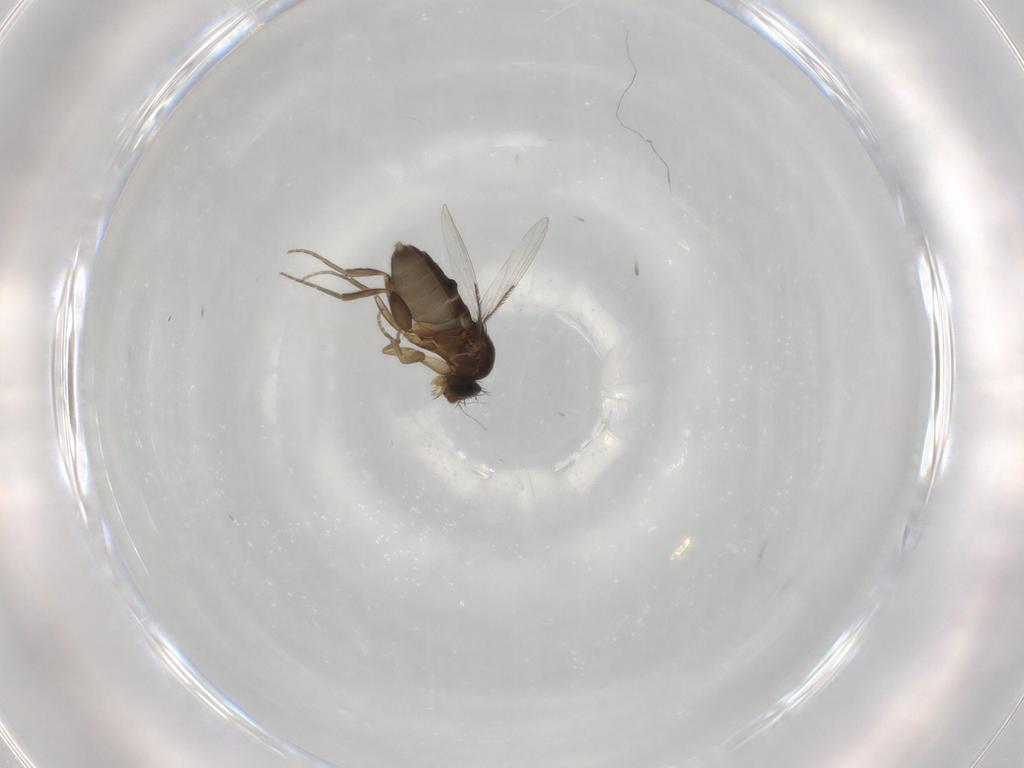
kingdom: Animalia
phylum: Arthropoda
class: Insecta
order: Diptera
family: Phoridae
